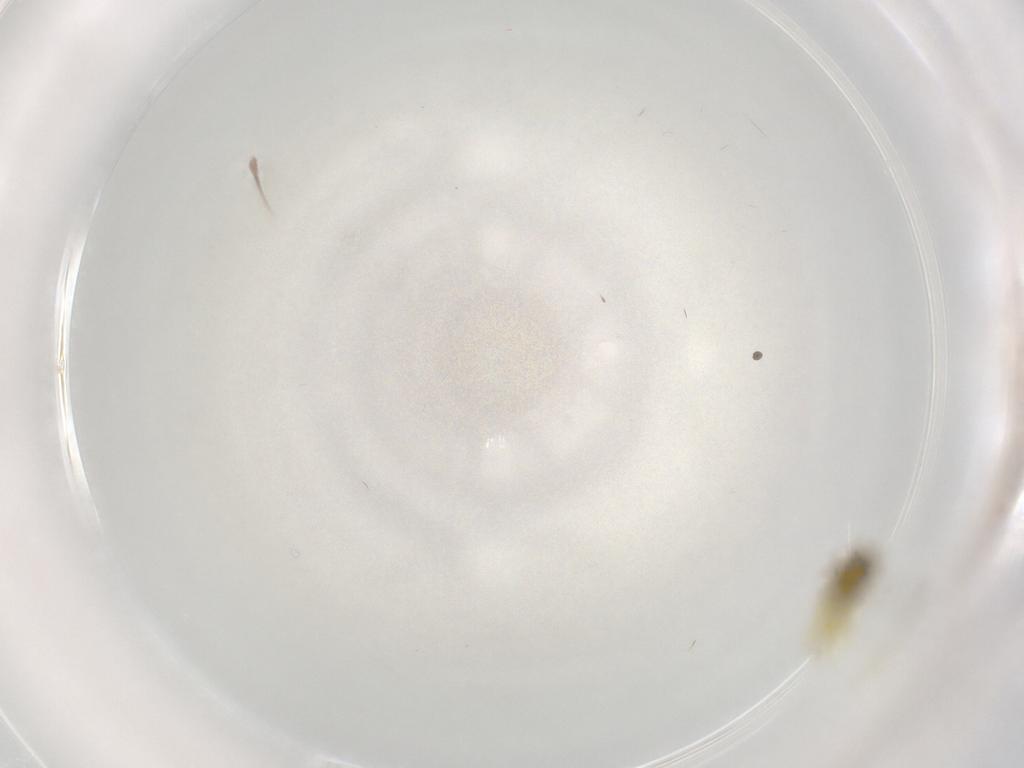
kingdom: Animalia
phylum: Arthropoda
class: Insecta
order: Hemiptera
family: Aleyrodidae
